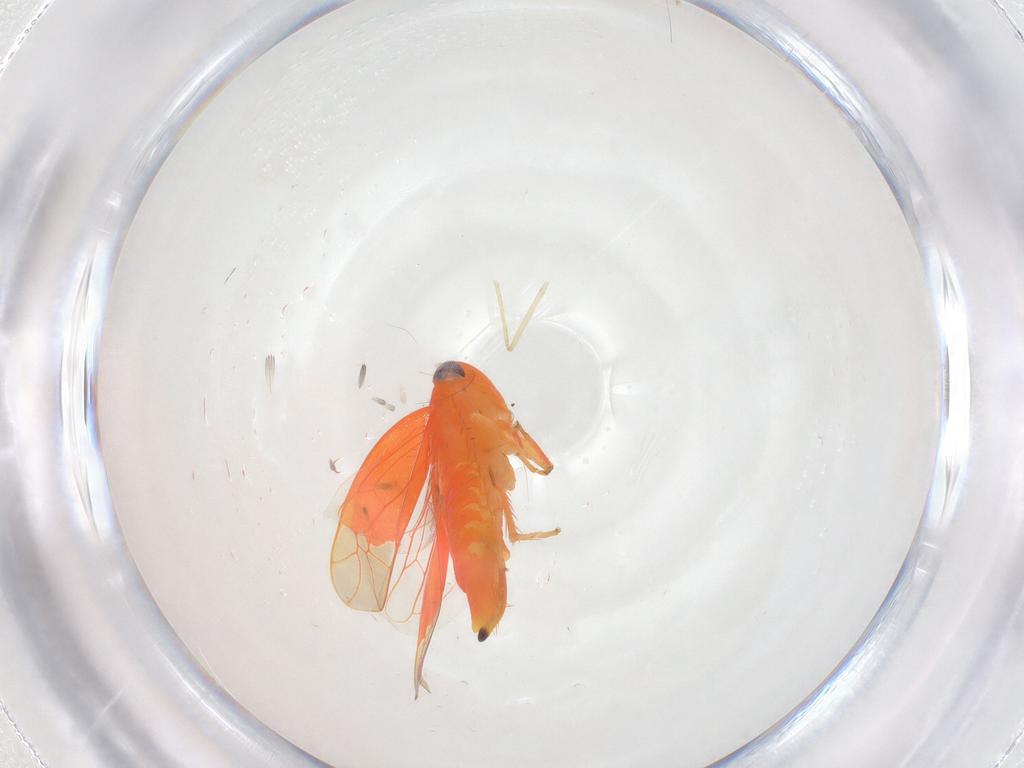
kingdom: Animalia
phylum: Arthropoda
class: Insecta
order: Hemiptera
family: Cicadellidae
